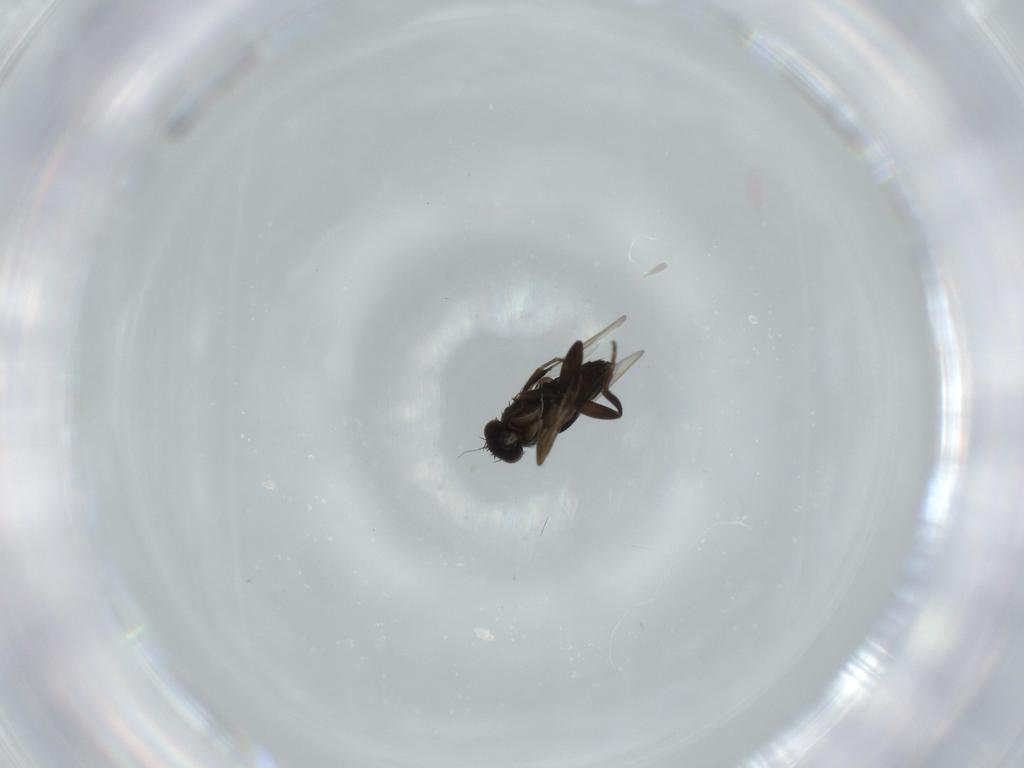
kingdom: Animalia
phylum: Arthropoda
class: Insecta
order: Diptera
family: Phoridae
